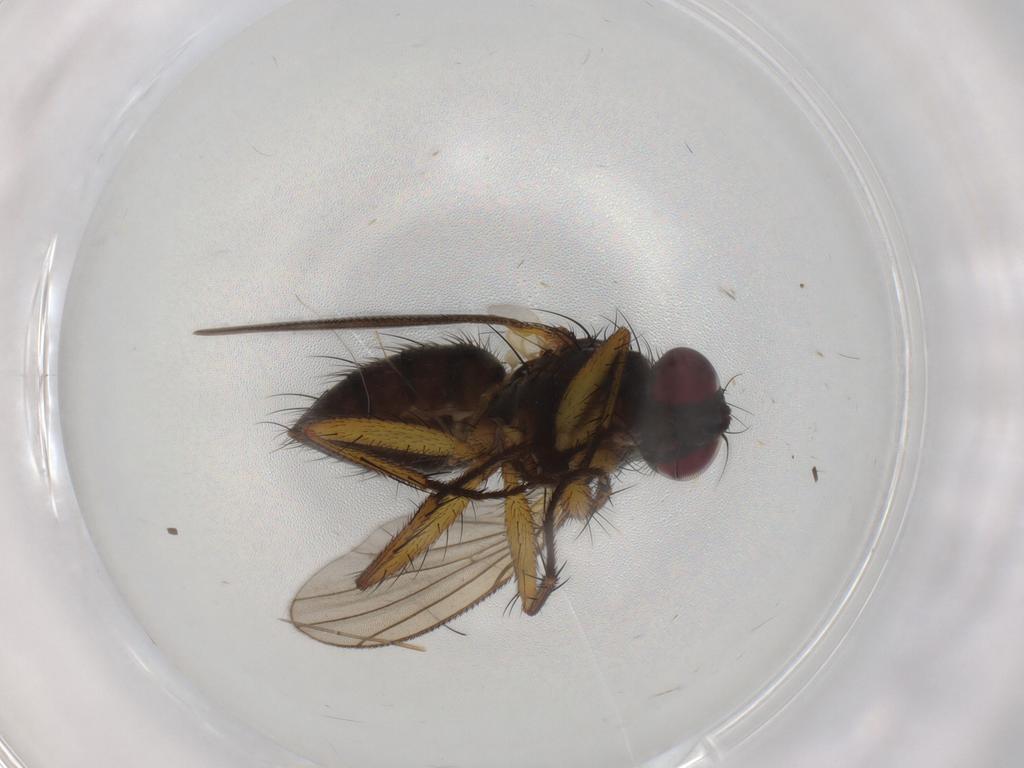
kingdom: Animalia
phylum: Arthropoda
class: Insecta
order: Diptera
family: Muscidae
